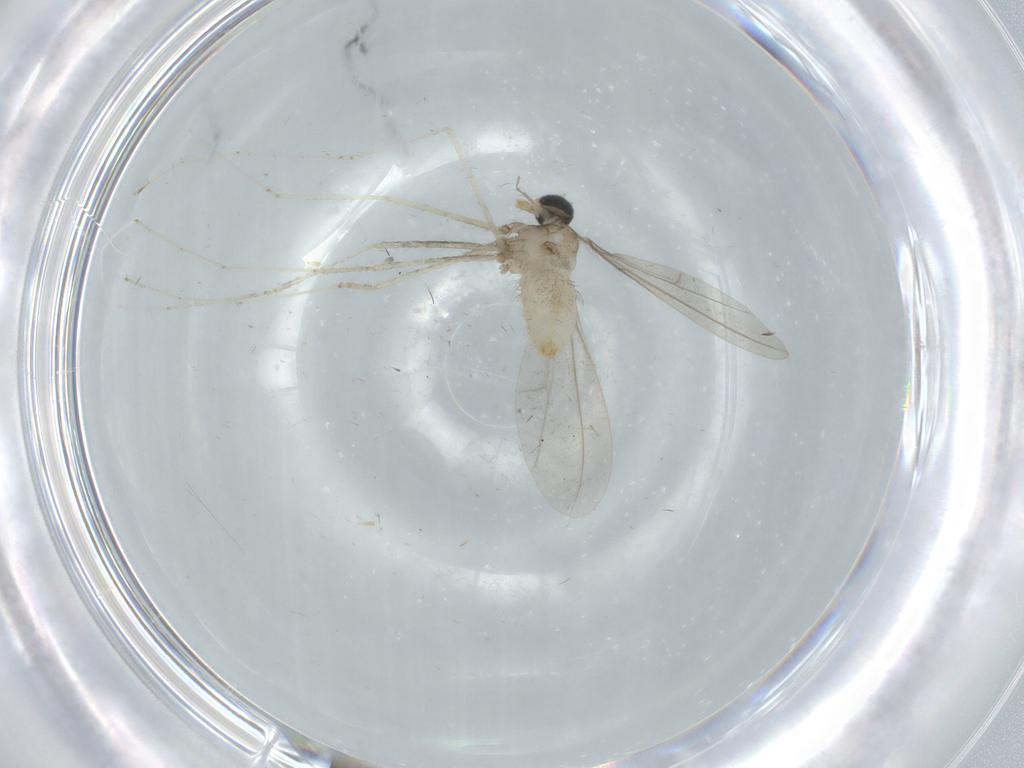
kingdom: Animalia
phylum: Arthropoda
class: Insecta
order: Diptera
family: Cecidomyiidae
